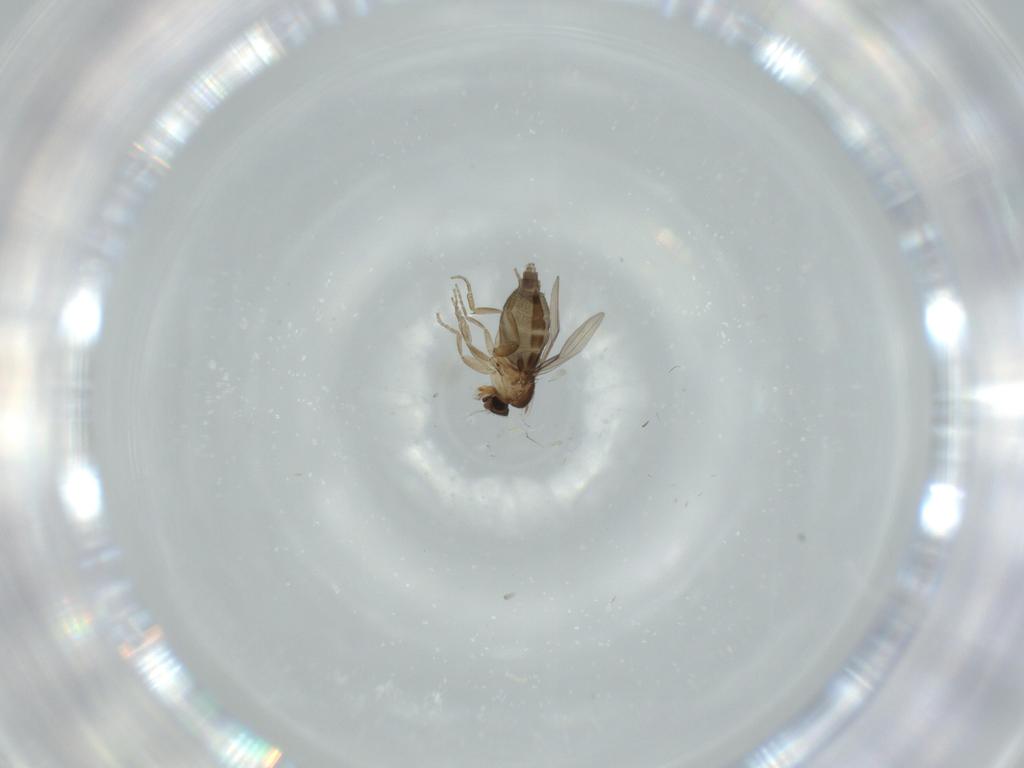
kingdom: Animalia
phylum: Arthropoda
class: Insecta
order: Diptera
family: Phoridae
